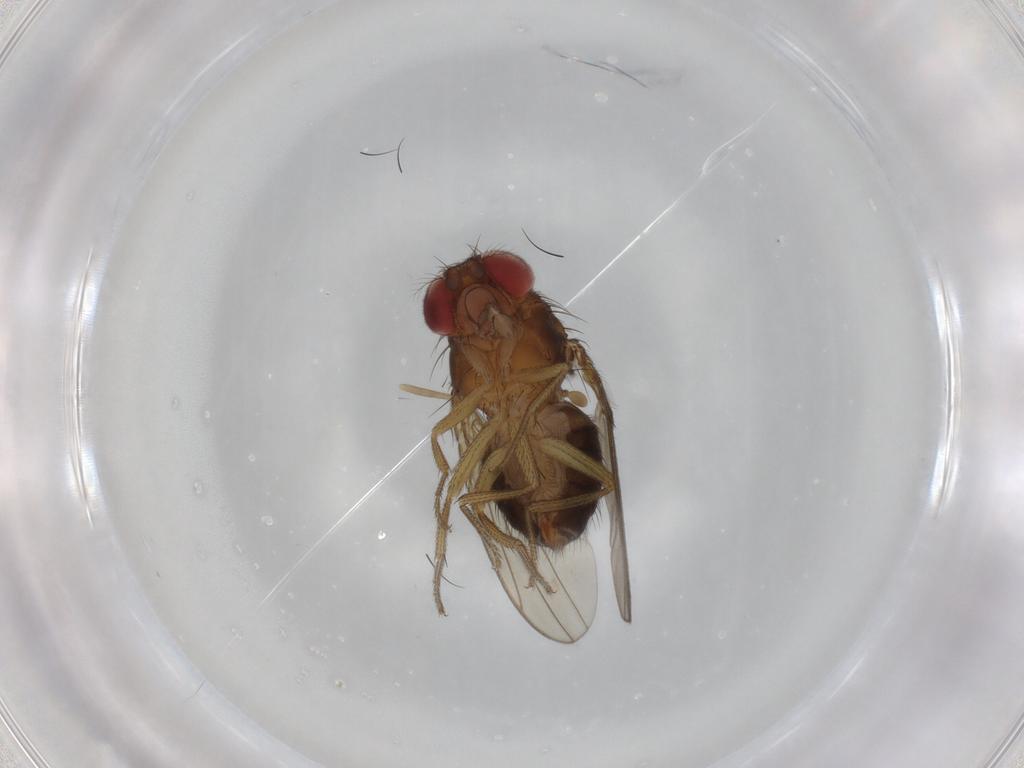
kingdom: Animalia
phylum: Arthropoda
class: Insecta
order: Diptera
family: Drosophilidae
